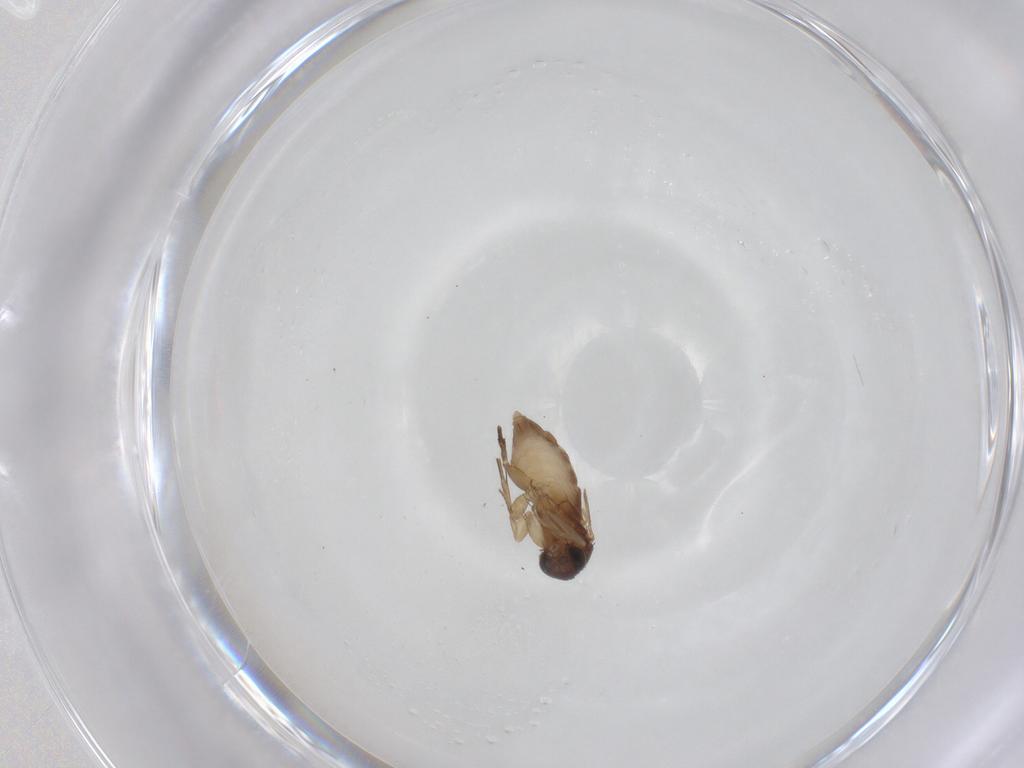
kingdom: Animalia
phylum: Arthropoda
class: Insecta
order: Diptera
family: Phoridae
